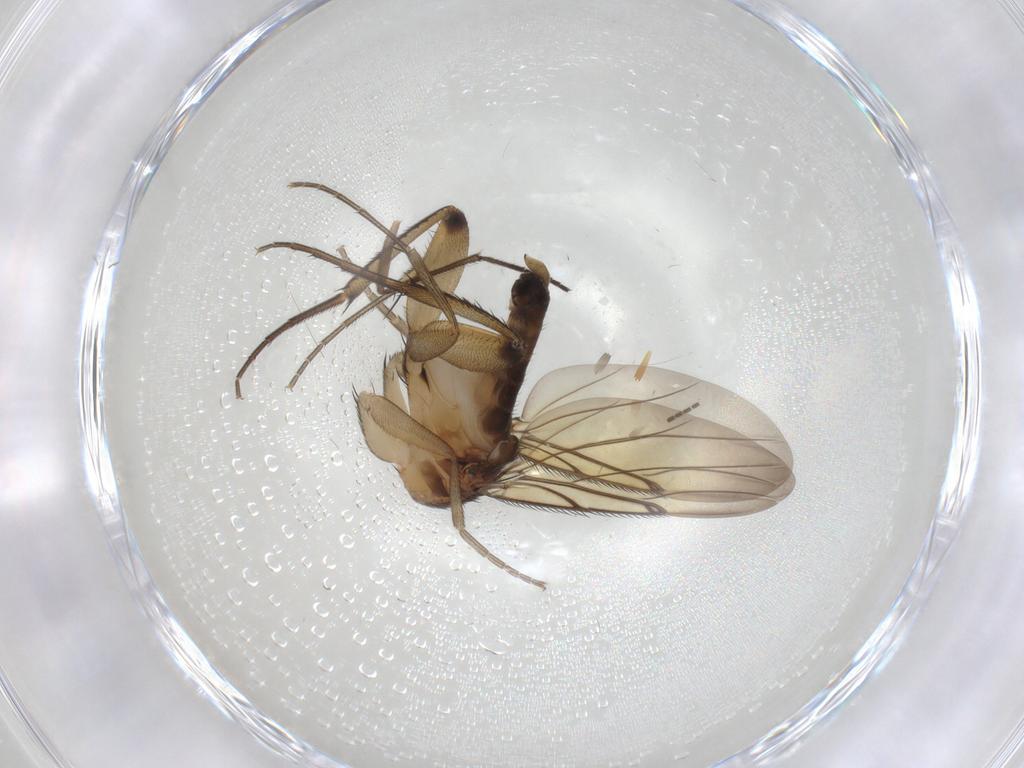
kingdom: Animalia
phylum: Arthropoda
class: Insecta
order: Diptera
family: Phoridae
